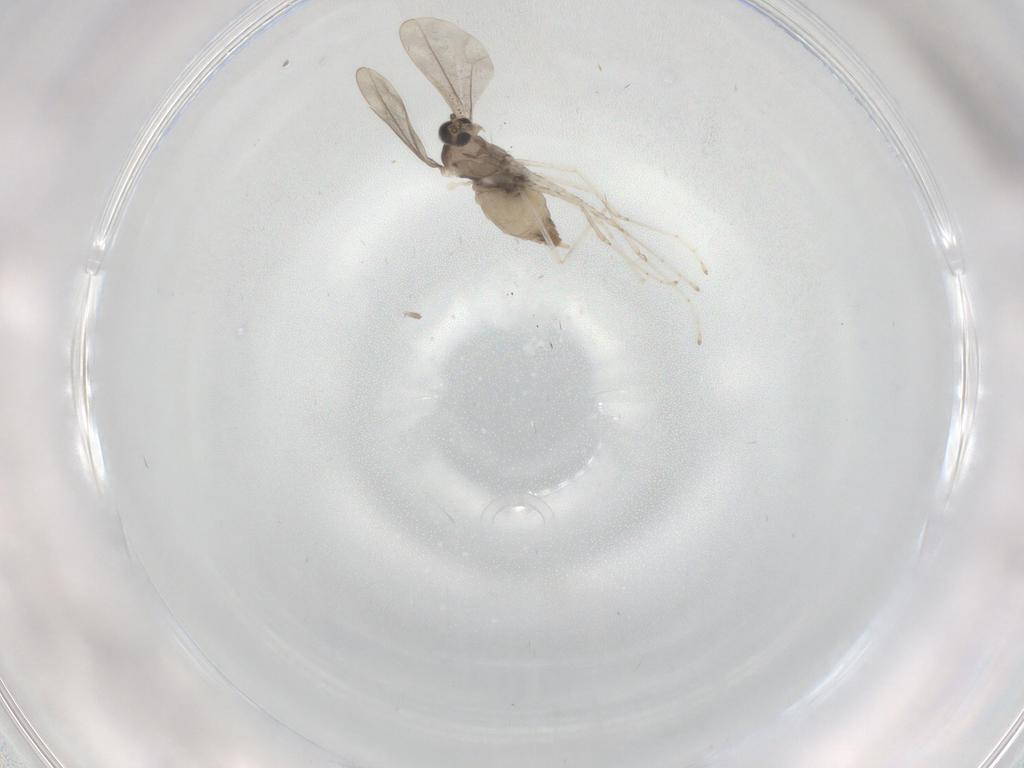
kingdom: Animalia
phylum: Arthropoda
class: Insecta
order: Diptera
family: Cecidomyiidae
